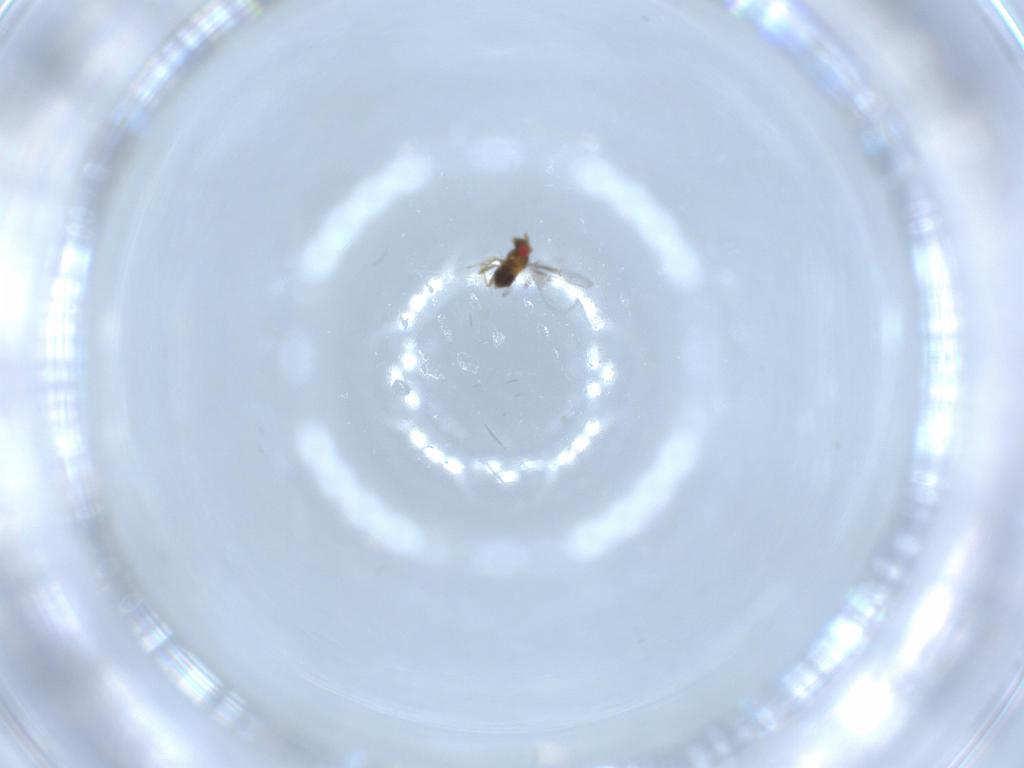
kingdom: Animalia
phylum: Arthropoda
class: Insecta
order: Hymenoptera
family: Trichogrammatidae
